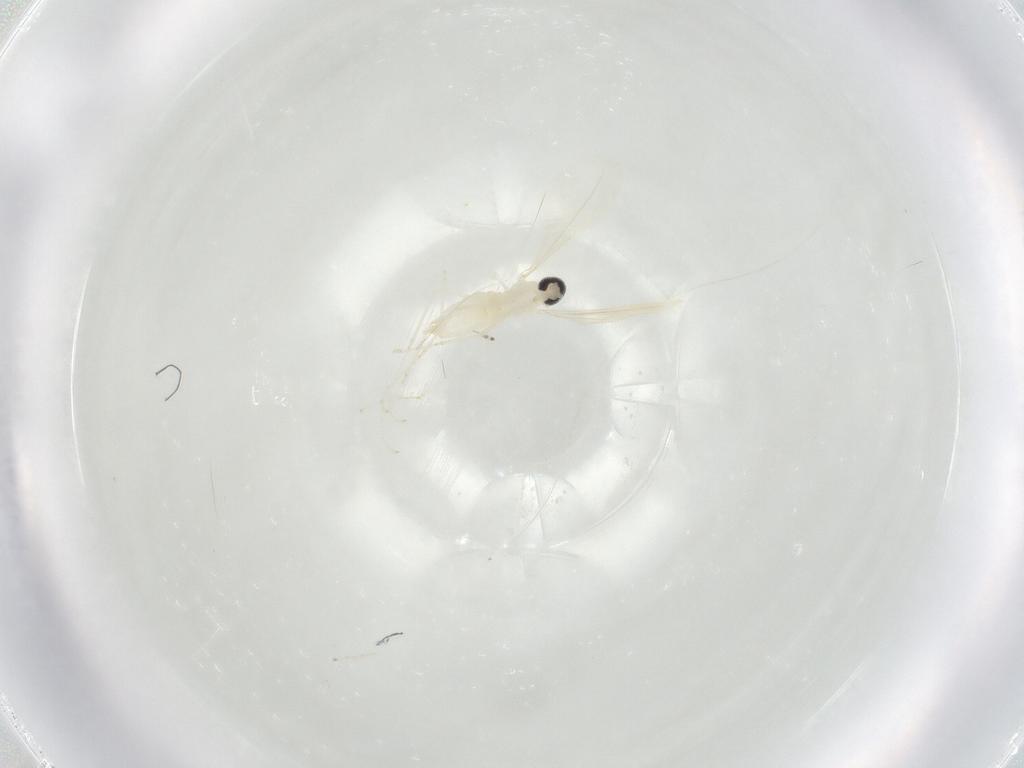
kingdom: Animalia
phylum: Arthropoda
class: Insecta
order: Diptera
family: Cecidomyiidae
